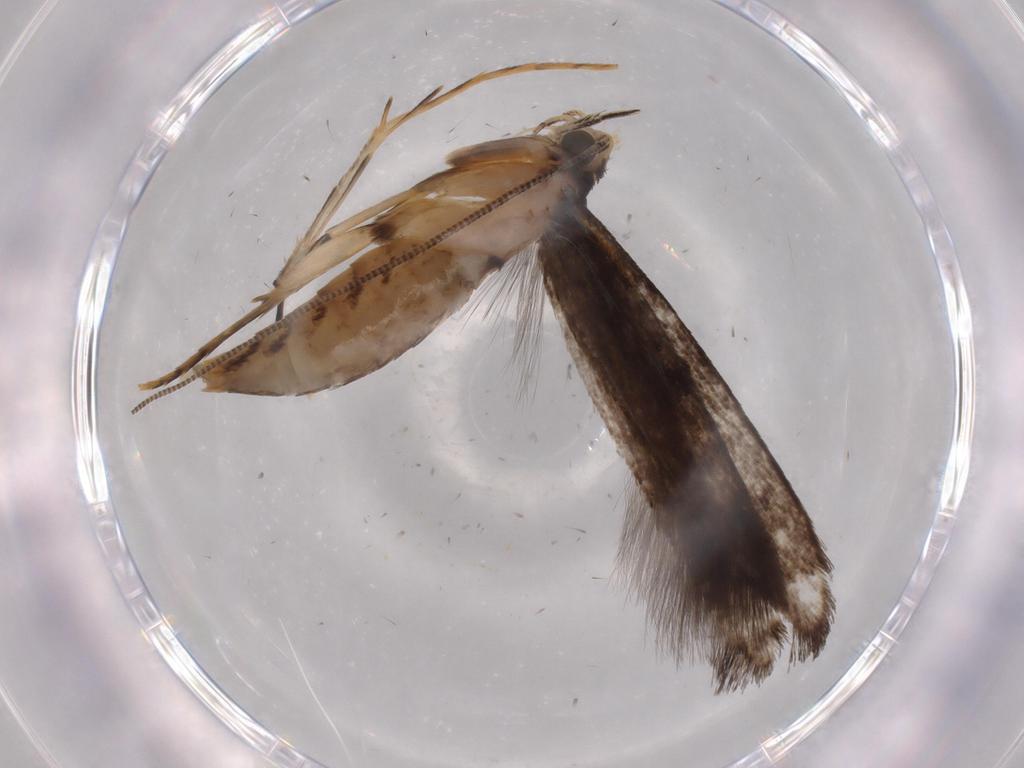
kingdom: Animalia
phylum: Arthropoda
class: Insecta
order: Lepidoptera
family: Tineidae
